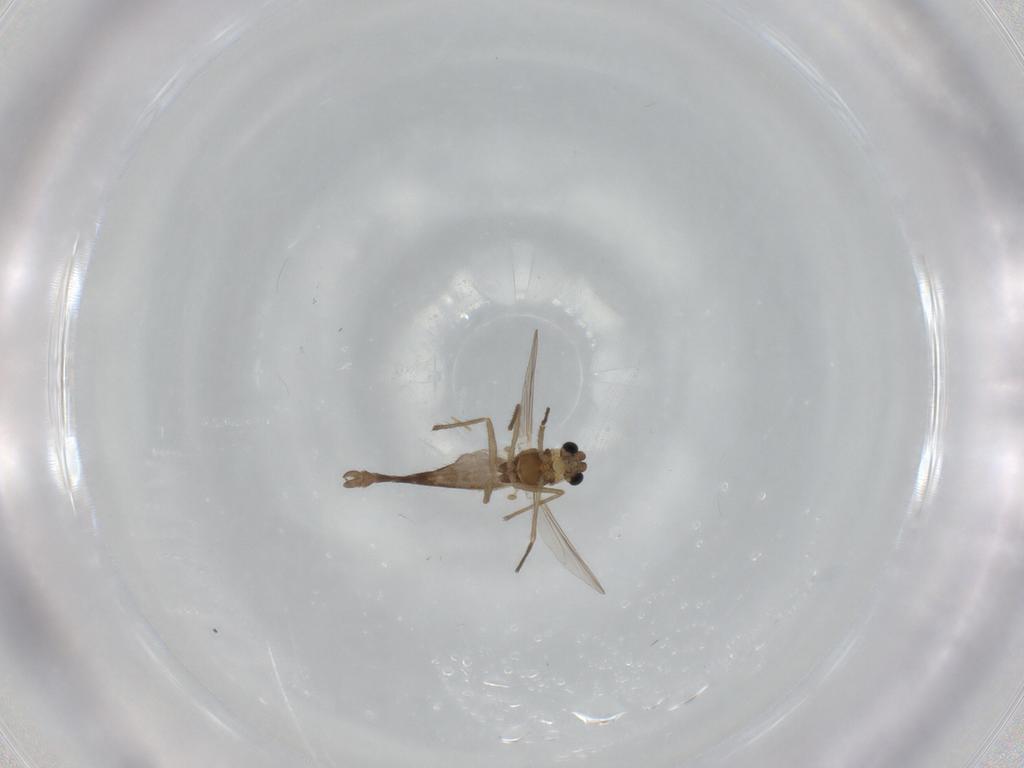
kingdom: Animalia
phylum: Arthropoda
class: Insecta
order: Diptera
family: Chironomidae
